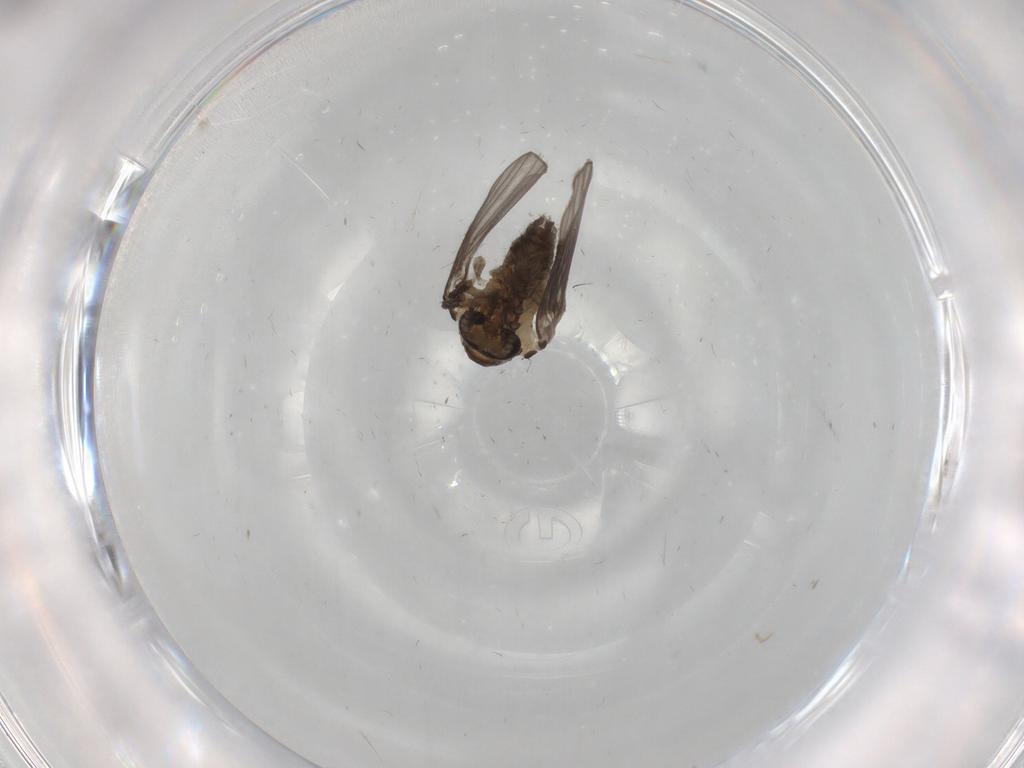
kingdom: Animalia
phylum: Arthropoda
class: Insecta
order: Diptera
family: Psychodidae
